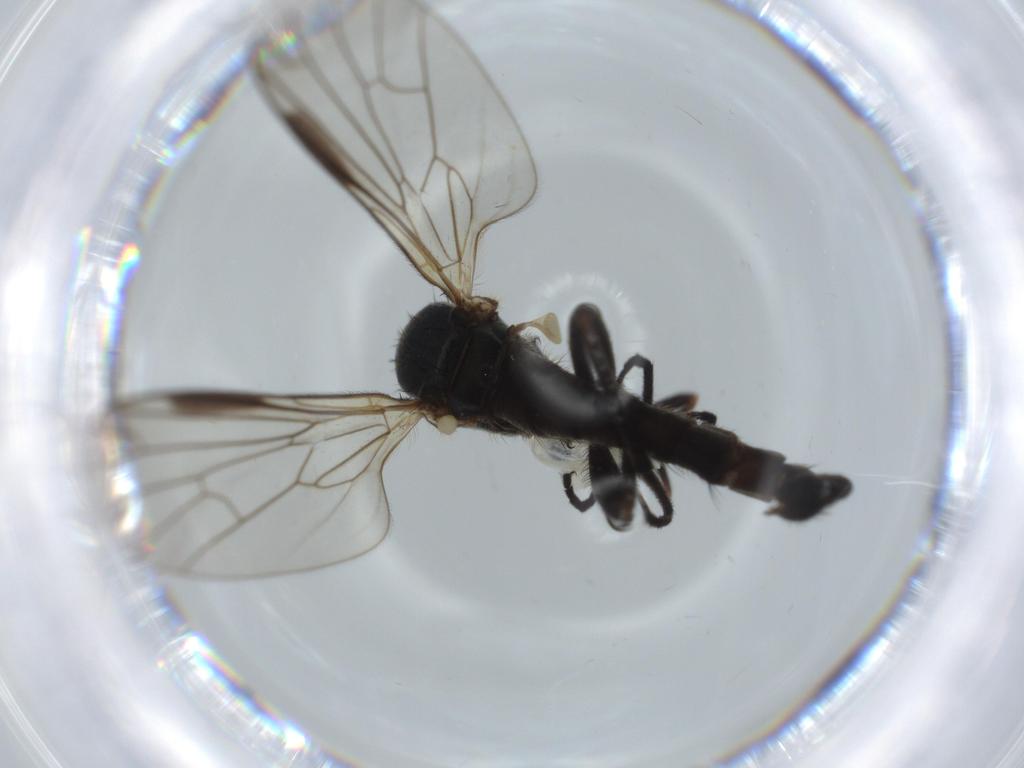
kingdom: Animalia
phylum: Arthropoda
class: Insecta
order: Diptera
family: Empididae
